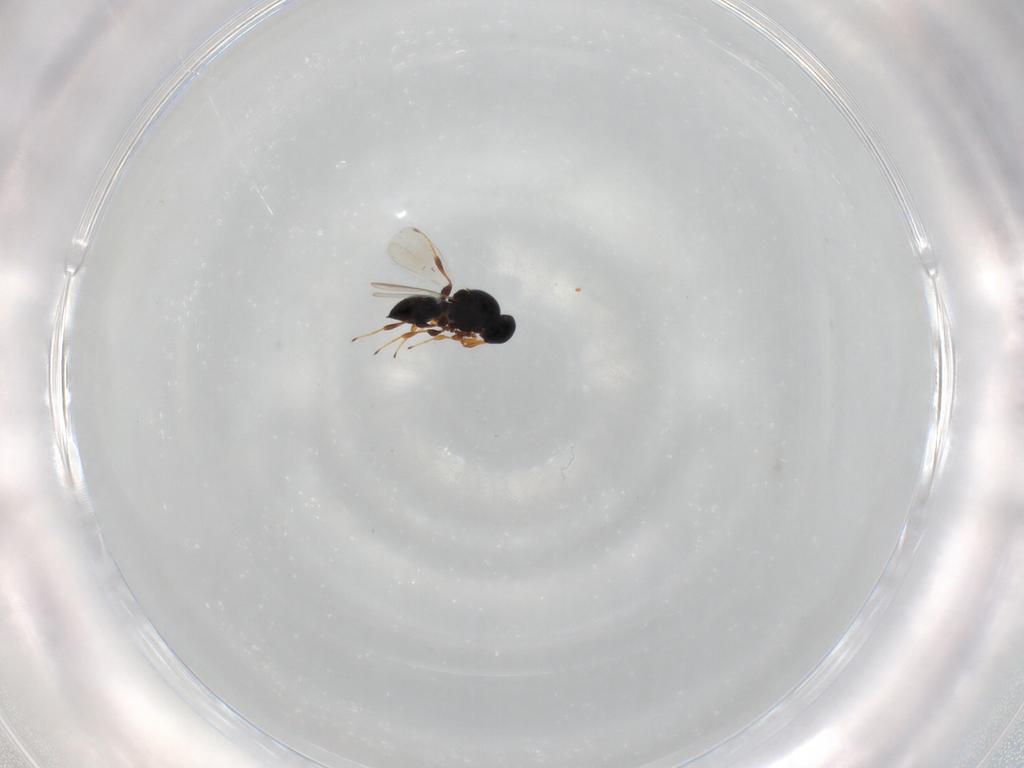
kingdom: Animalia
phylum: Arthropoda
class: Insecta
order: Hymenoptera
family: Platygastridae
